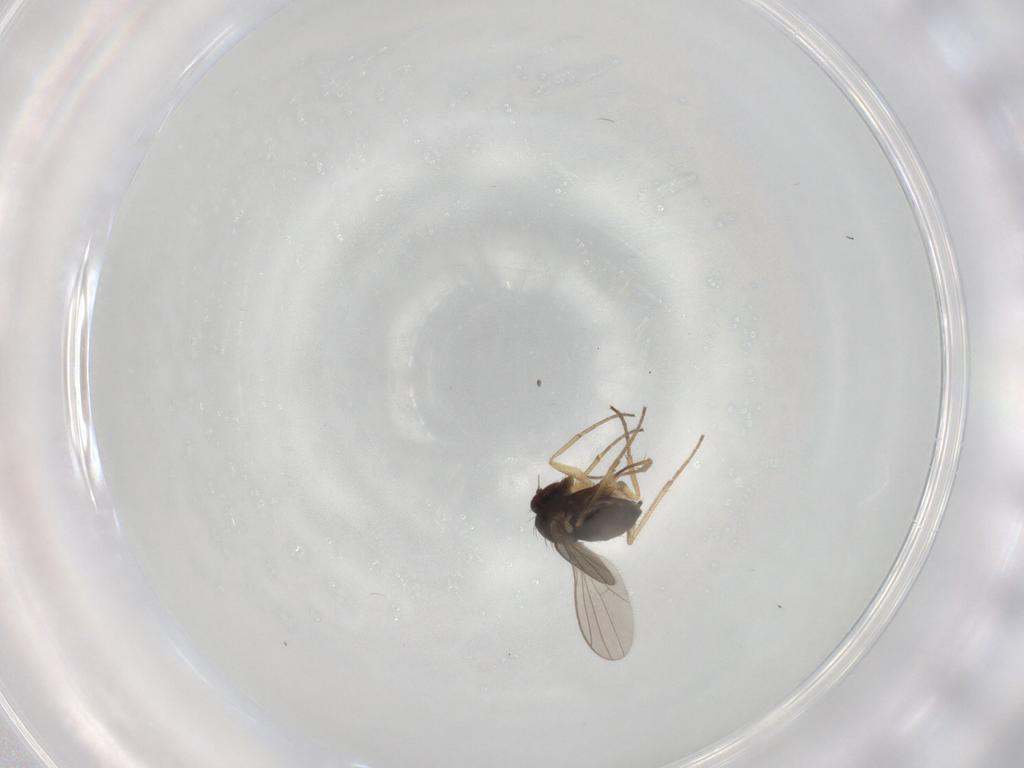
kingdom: Animalia
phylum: Arthropoda
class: Insecta
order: Diptera
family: Dolichopodidae
